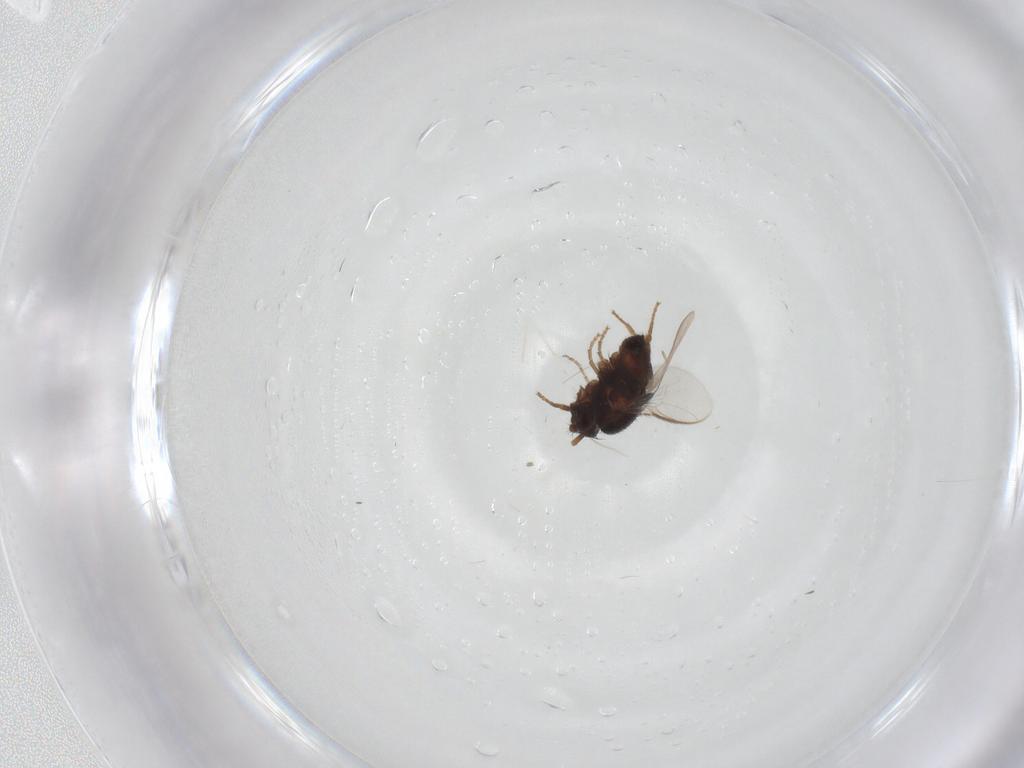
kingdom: Animalia
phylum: Arthropoda
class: Insecta
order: Diptera
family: Sphaeroceridae
